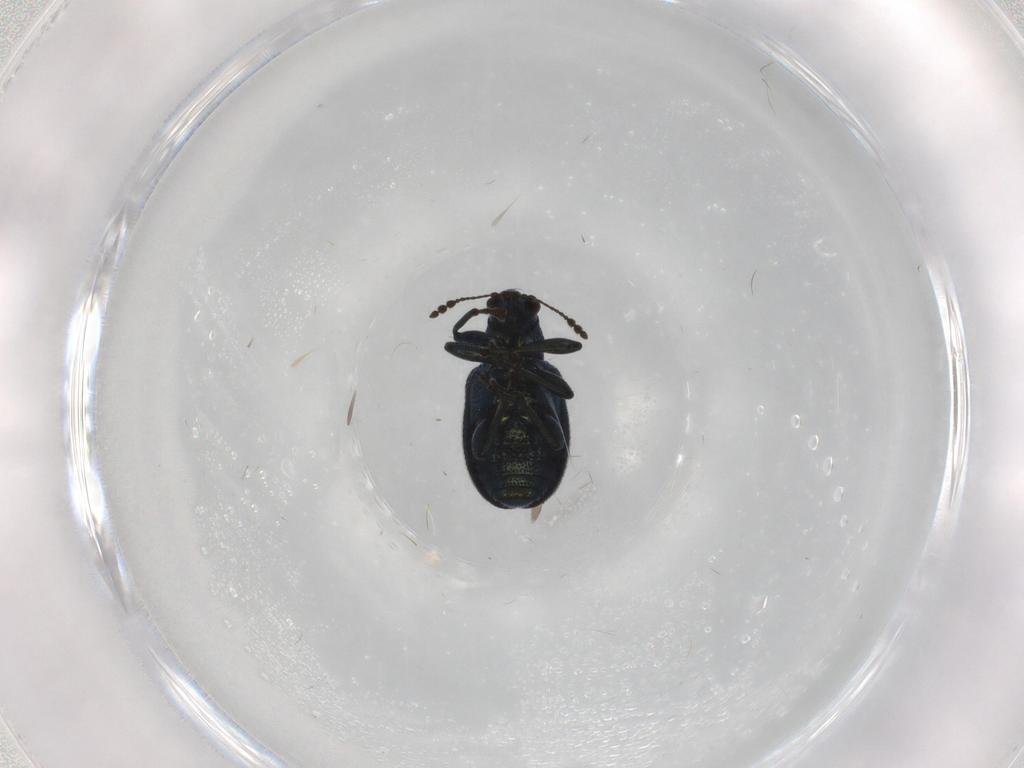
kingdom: Animalia
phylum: Arthropoda
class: Insecta
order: Coleoptera
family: Attelabidae
